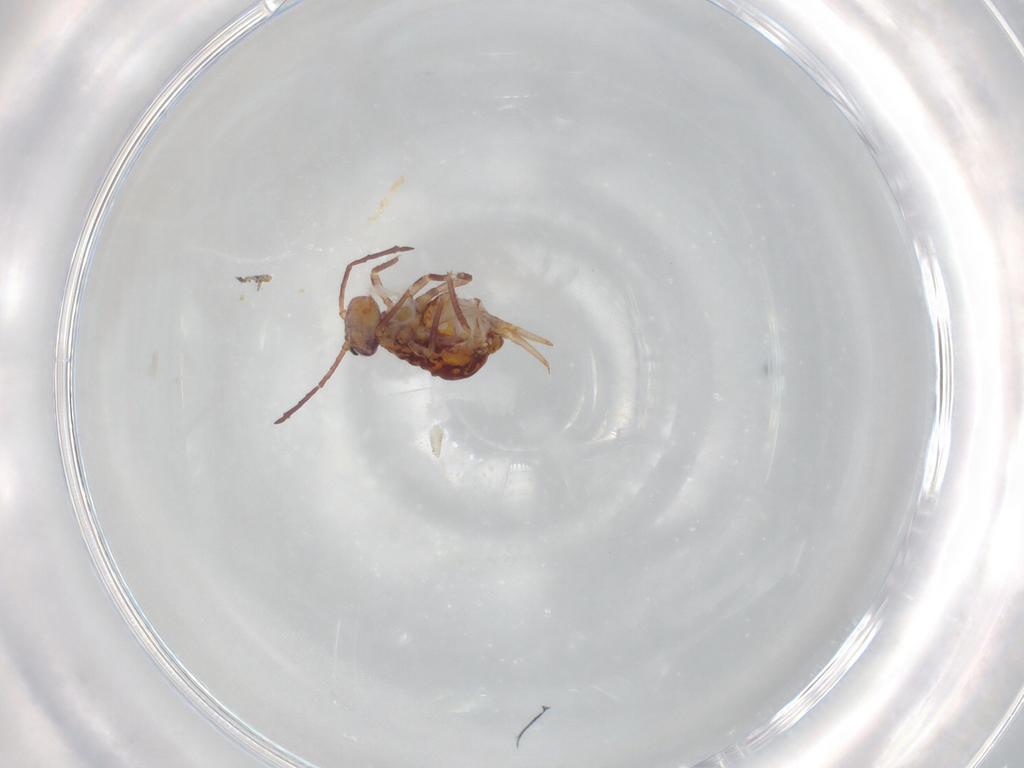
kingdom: Animalia
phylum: Arthropoda
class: Collembola
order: Symphypleona
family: Dicyrtomidae
